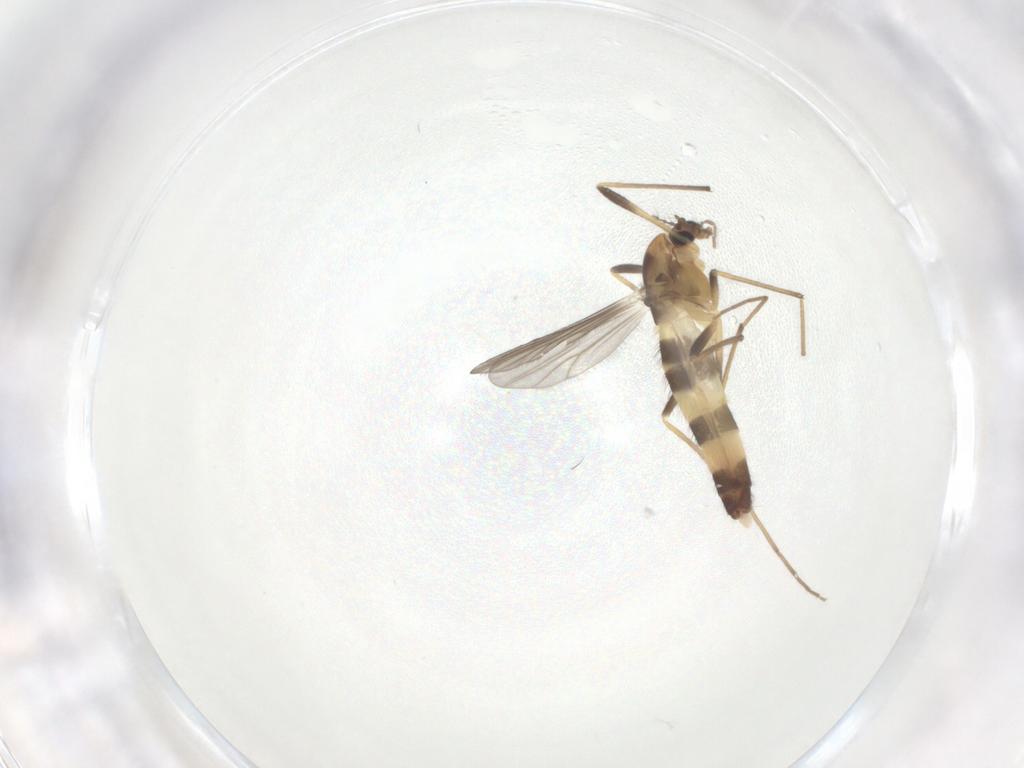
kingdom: Animalia
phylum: Arthropoda
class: Insecta
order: Diptera
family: Chironomidae
